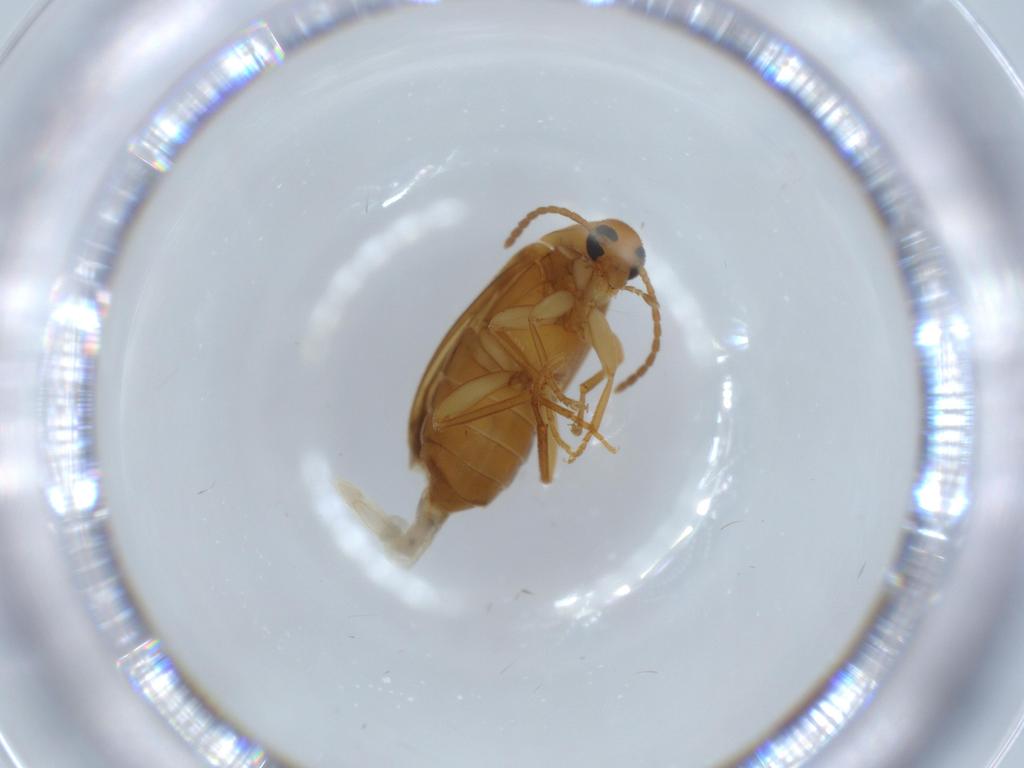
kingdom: Animalia
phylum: Arthropoda
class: Insecta
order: Coleoptera
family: Scraptiidae
